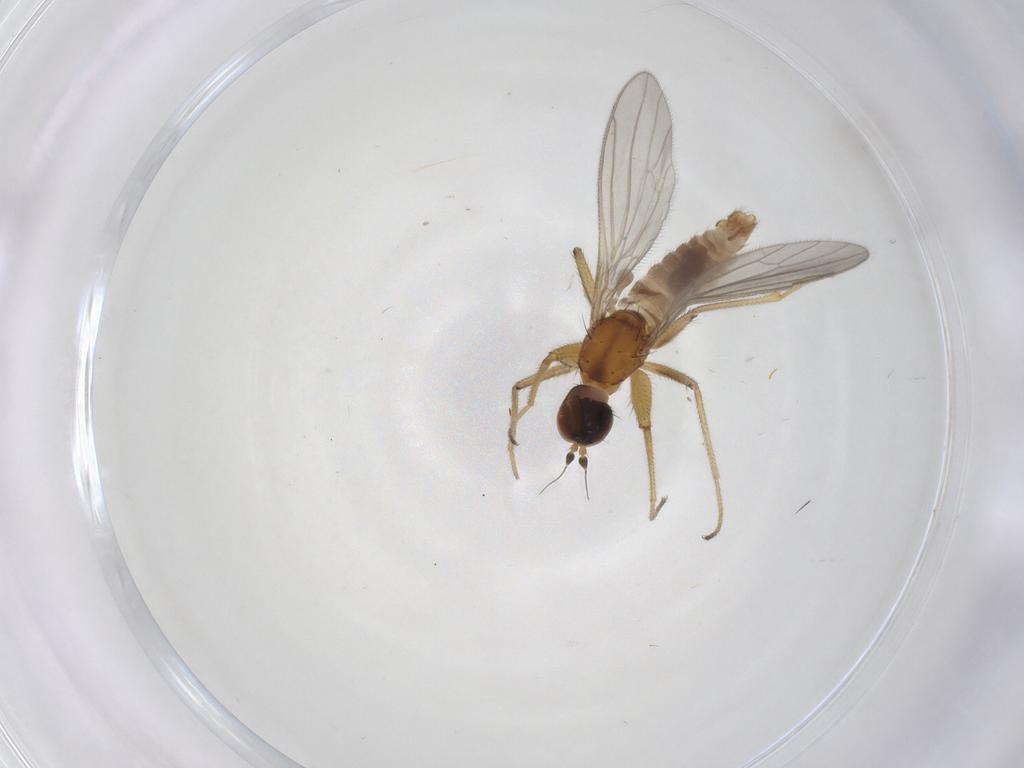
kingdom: Animalia
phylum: Arthropoda
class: Insecta
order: Diptera
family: Empididae
